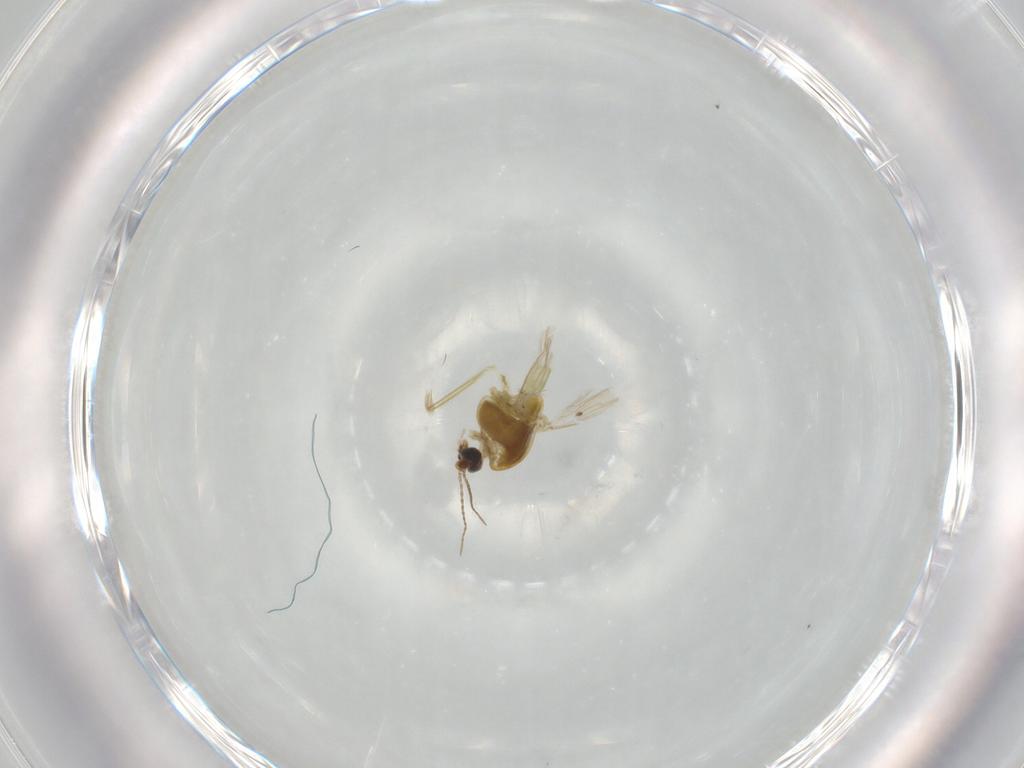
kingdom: Animalia
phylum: Arthropoda
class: Insecta
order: Diptera
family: Chironomidae
